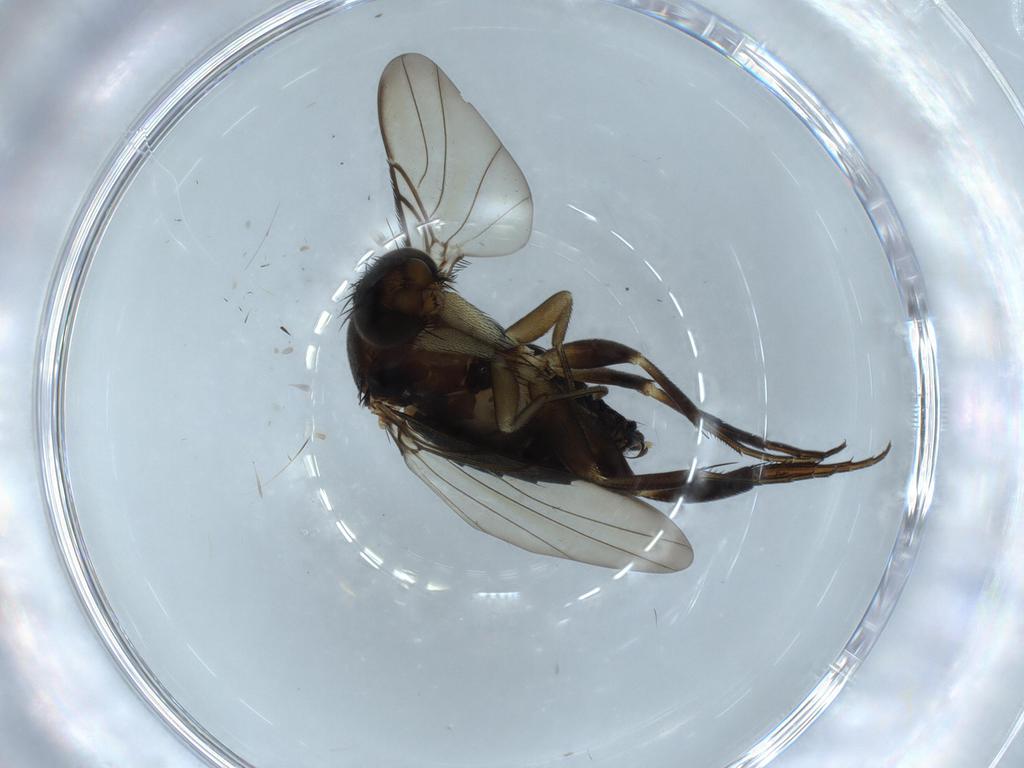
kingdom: Animalia
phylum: Arthropoda
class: Insecta
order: Diptera
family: Phoridae
